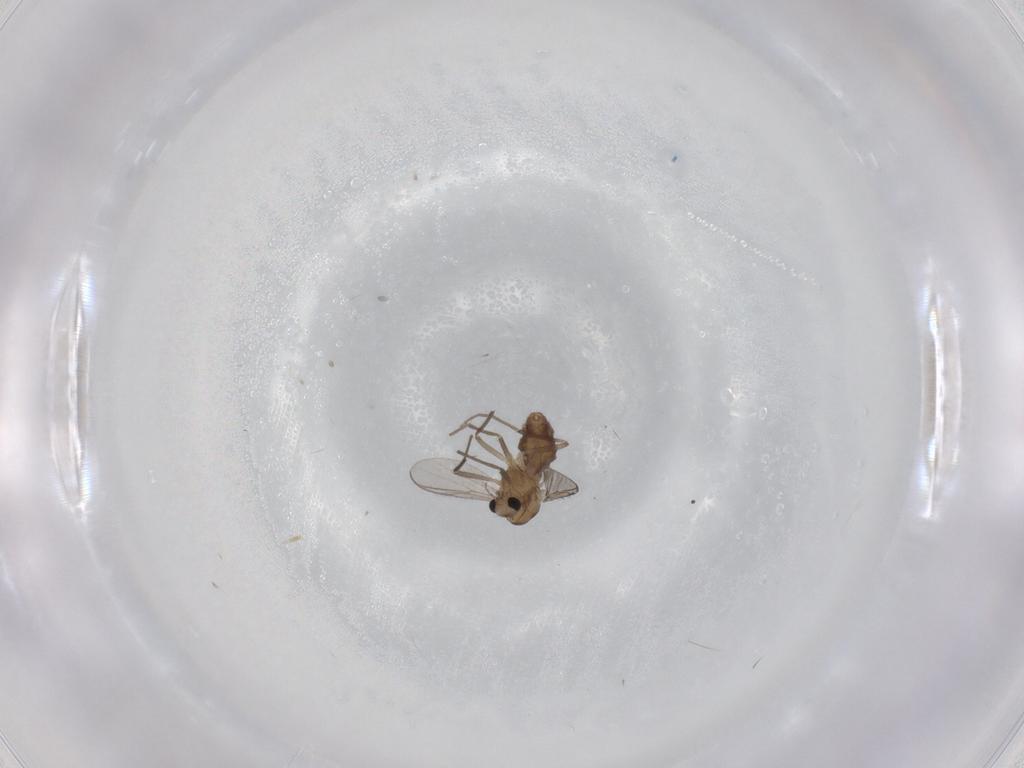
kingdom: Animalia
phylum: Arthropoda
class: Insecta
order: Diptera
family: Chironomidae
